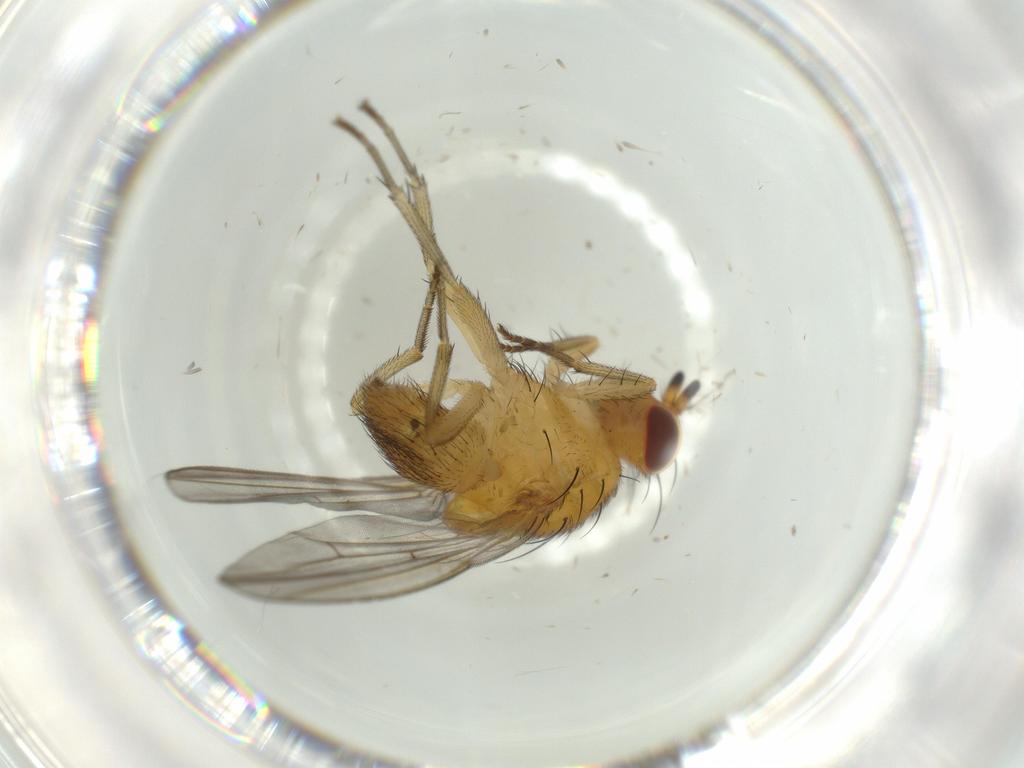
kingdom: Animalia
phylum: Arthropoda
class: Insecta
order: Diptera
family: Lauxaniidae
